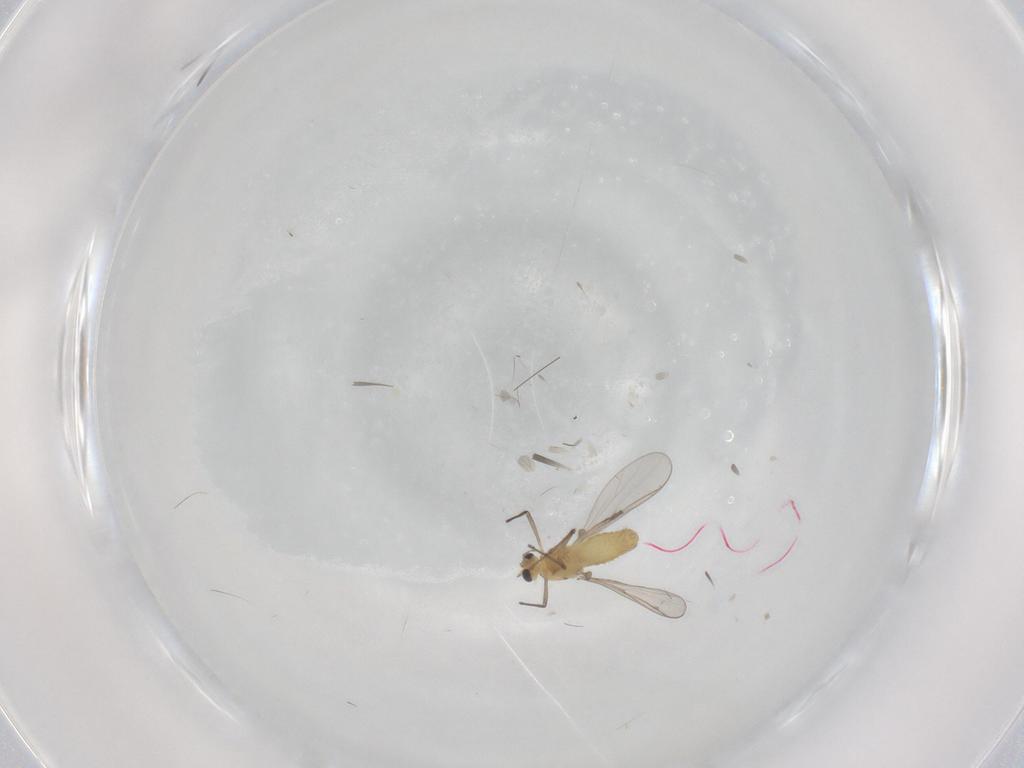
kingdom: Animalia
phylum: Arthropoda
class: Insecta
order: Diptera
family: Chironomidae
